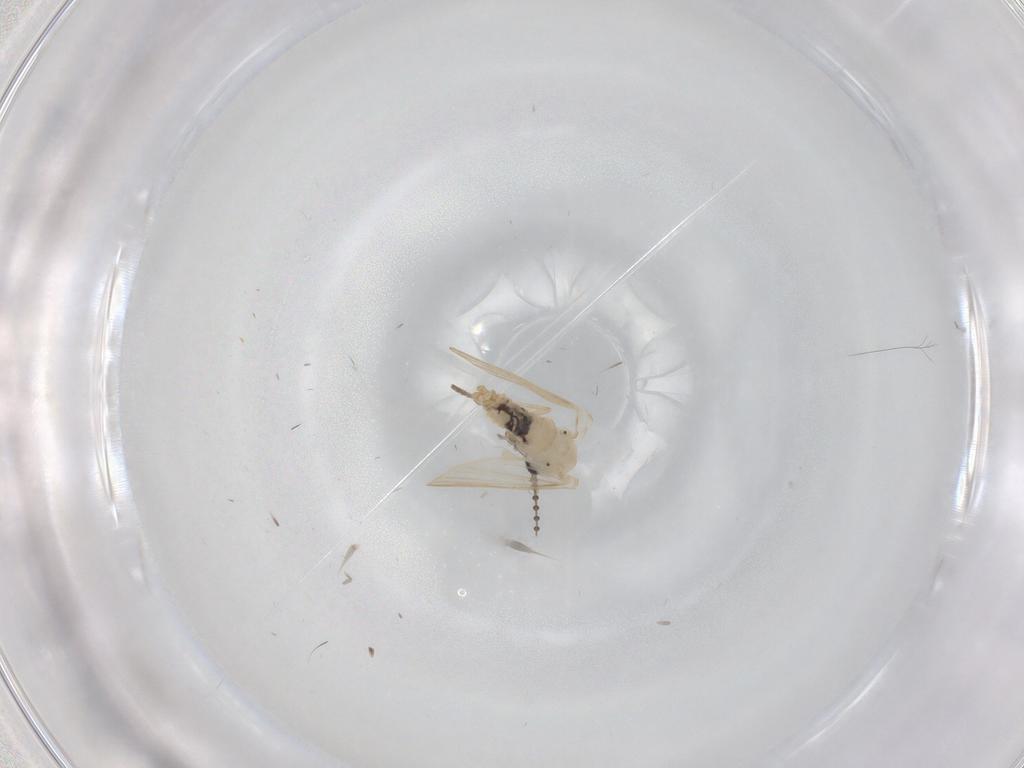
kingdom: Animalia
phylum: Arthropoda
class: Insecta
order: Diptera
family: Psychodidae
